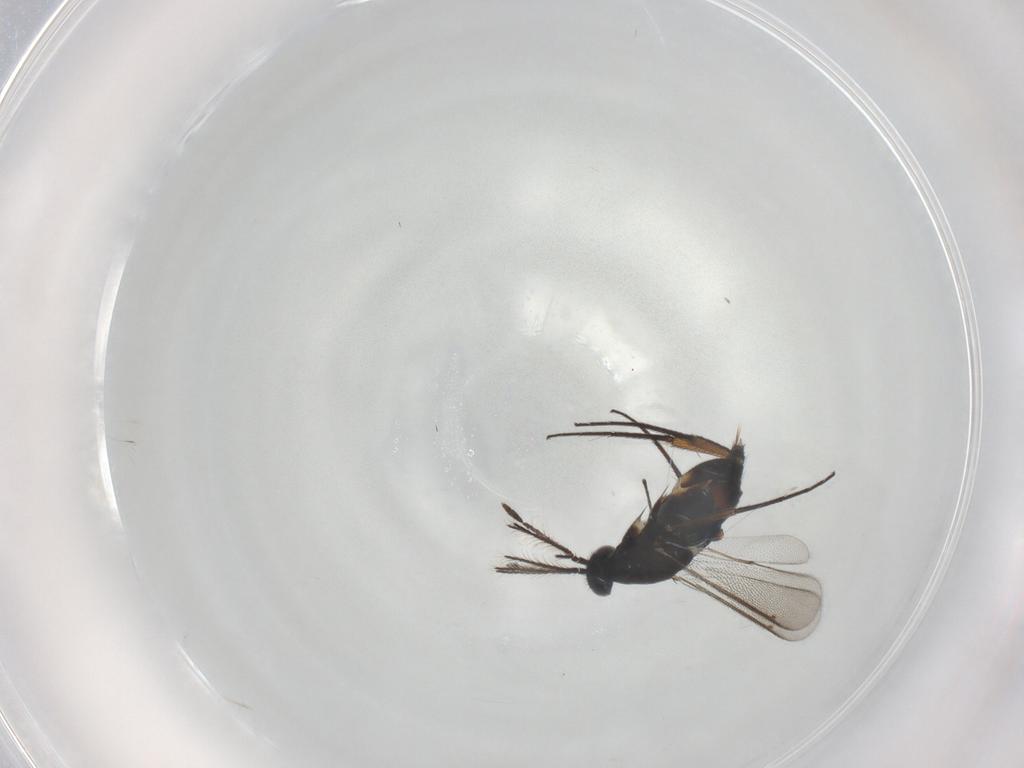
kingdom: Animalia
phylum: Arthropoda
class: Insecta
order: Hymenoptera
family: Eulophidae
